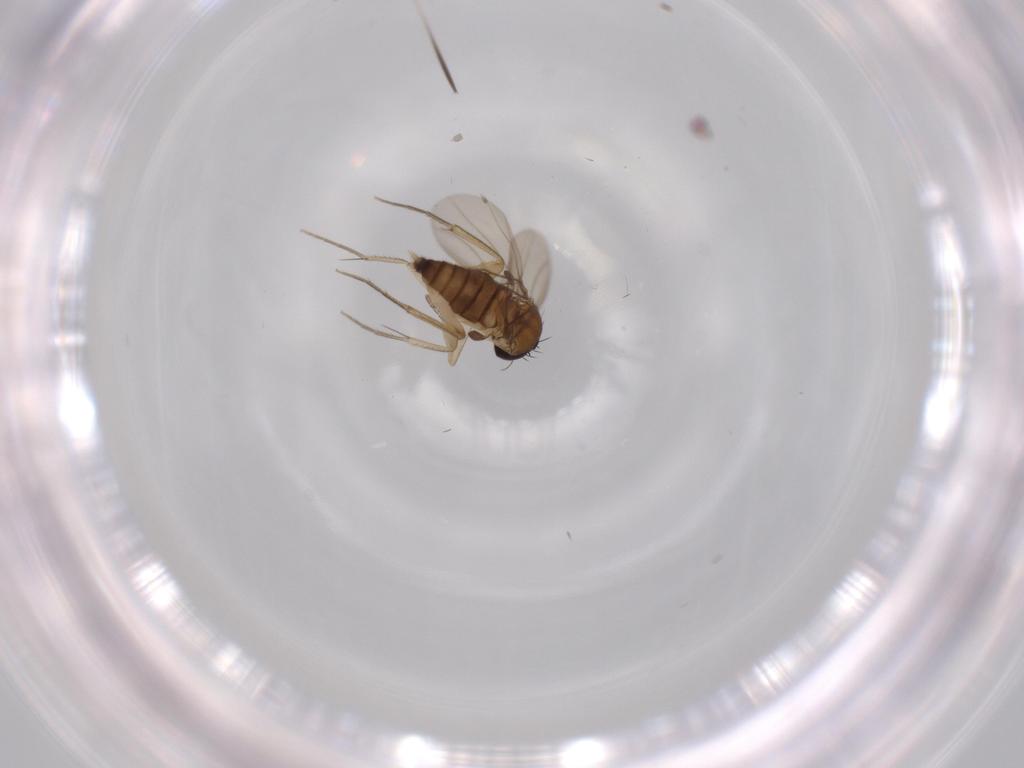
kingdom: Animalia
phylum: Arthropoda
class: Insecta
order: Diptera
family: Phoridae
